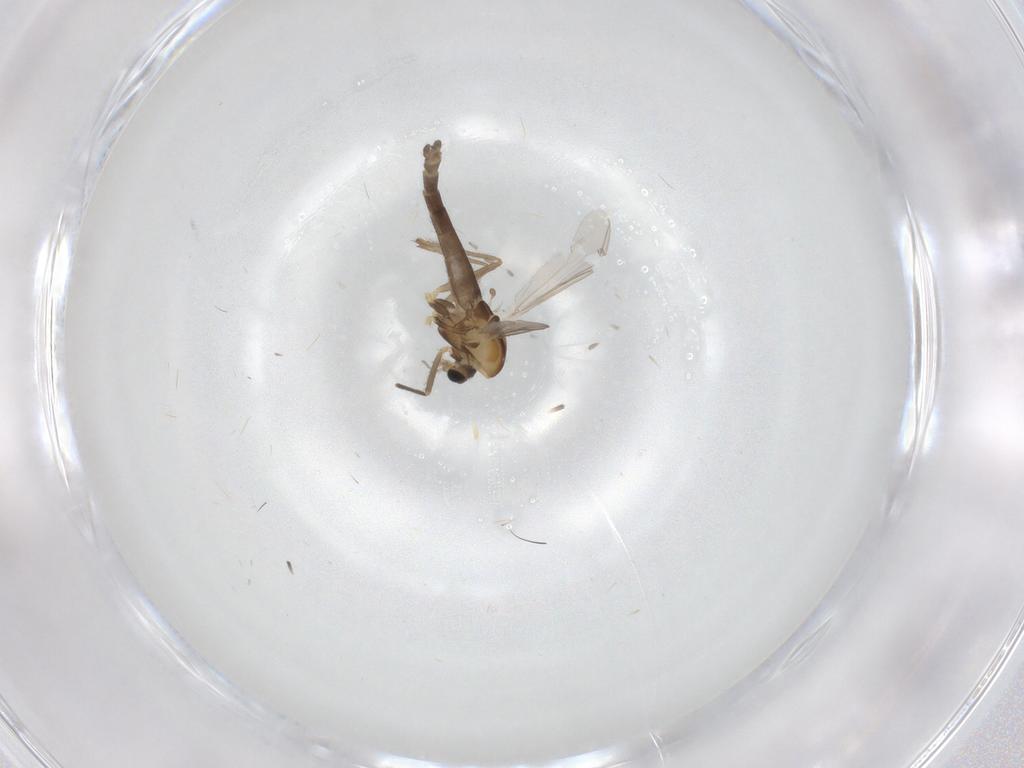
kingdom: Animalia
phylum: Arthropoda
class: Insecta
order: Diptera
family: Chironomidae
